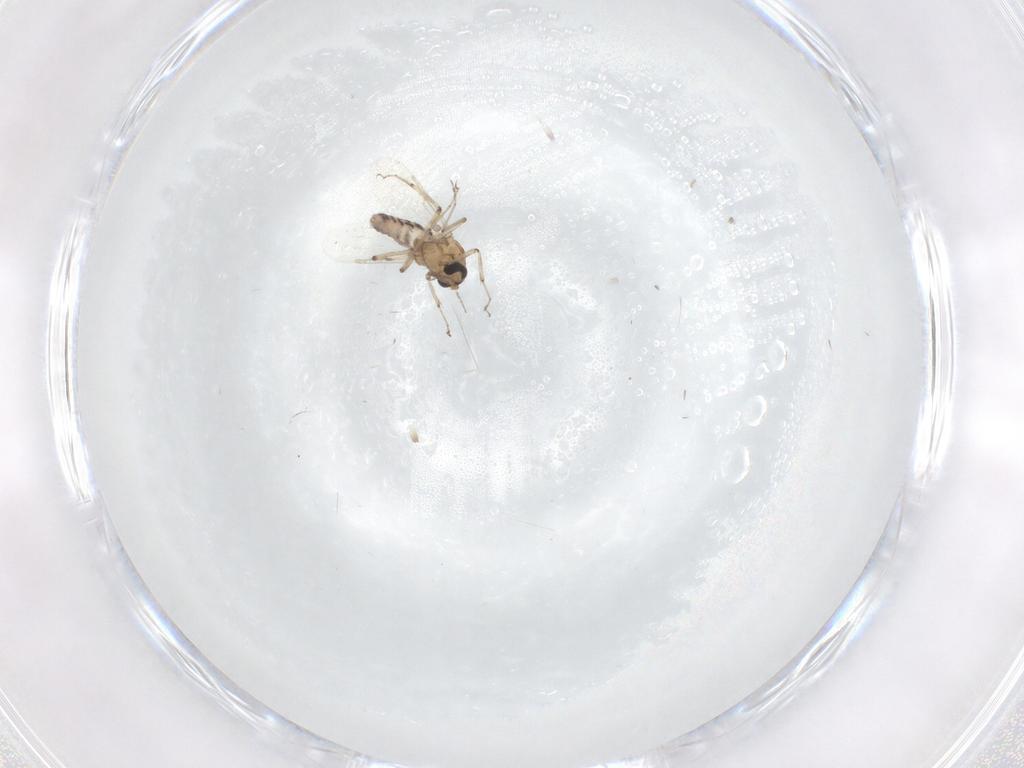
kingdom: Animalia
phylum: Arthropoda
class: Insecta
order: Diptera
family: Ceratopogonidae
